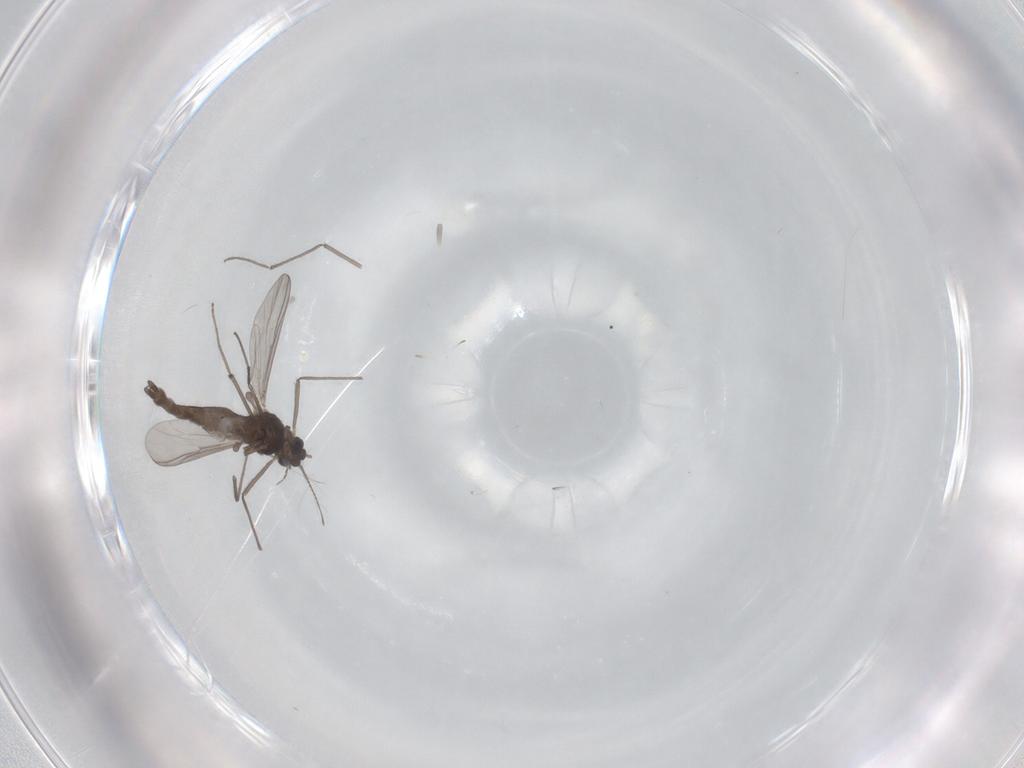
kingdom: Animalia
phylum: Arthropoda
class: Insecta
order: Diptera
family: Chironomidae
